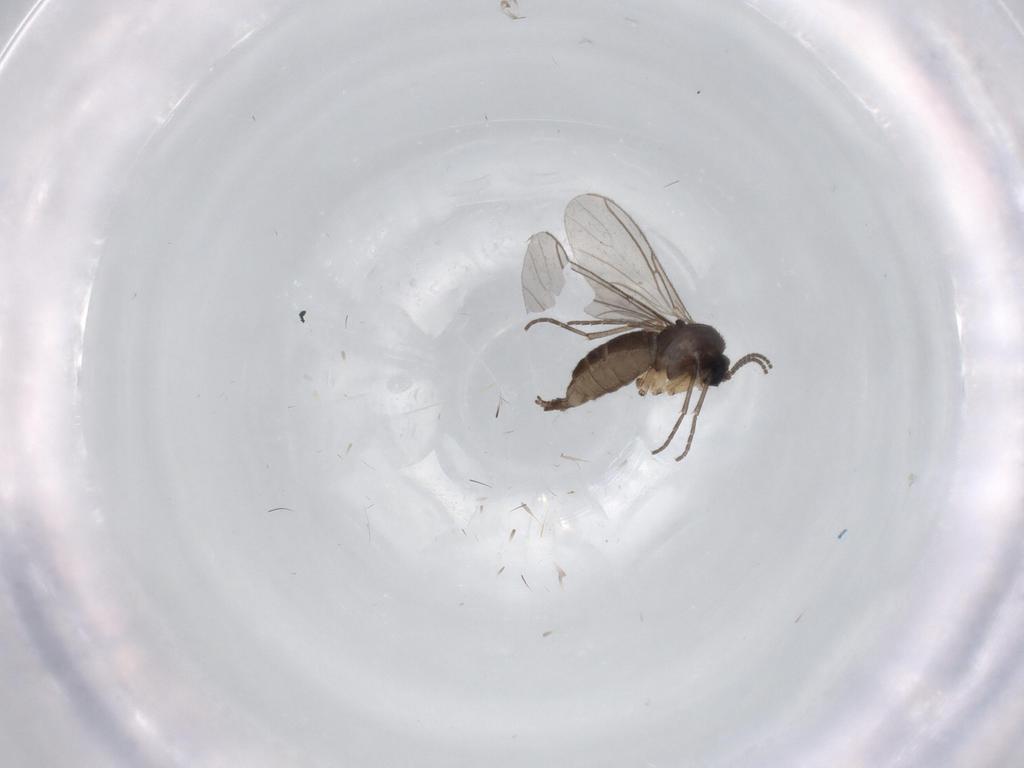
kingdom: Animalia
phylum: Arthropoda
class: Insecta
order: Diptera
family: Sciaridae
